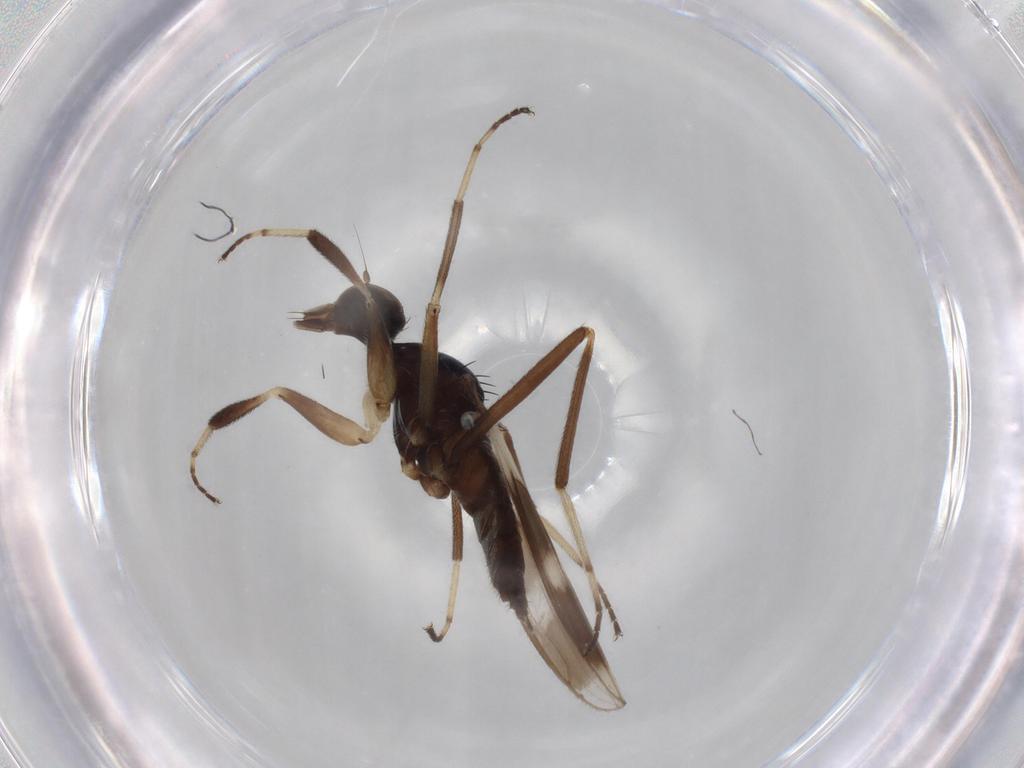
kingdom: Animalia
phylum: Arthropoda
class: Insecta
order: Diptera
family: Hybotidae
